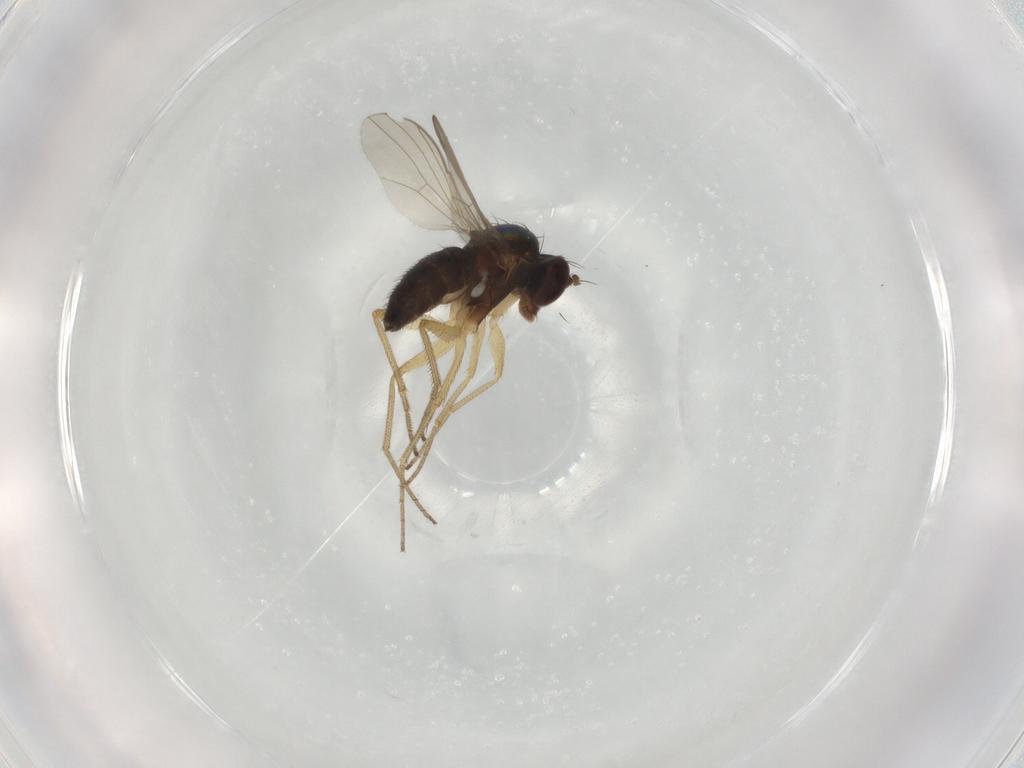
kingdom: Animalia
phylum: Arthropoda
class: Insecta
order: Diptera
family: Dolichopodidae
